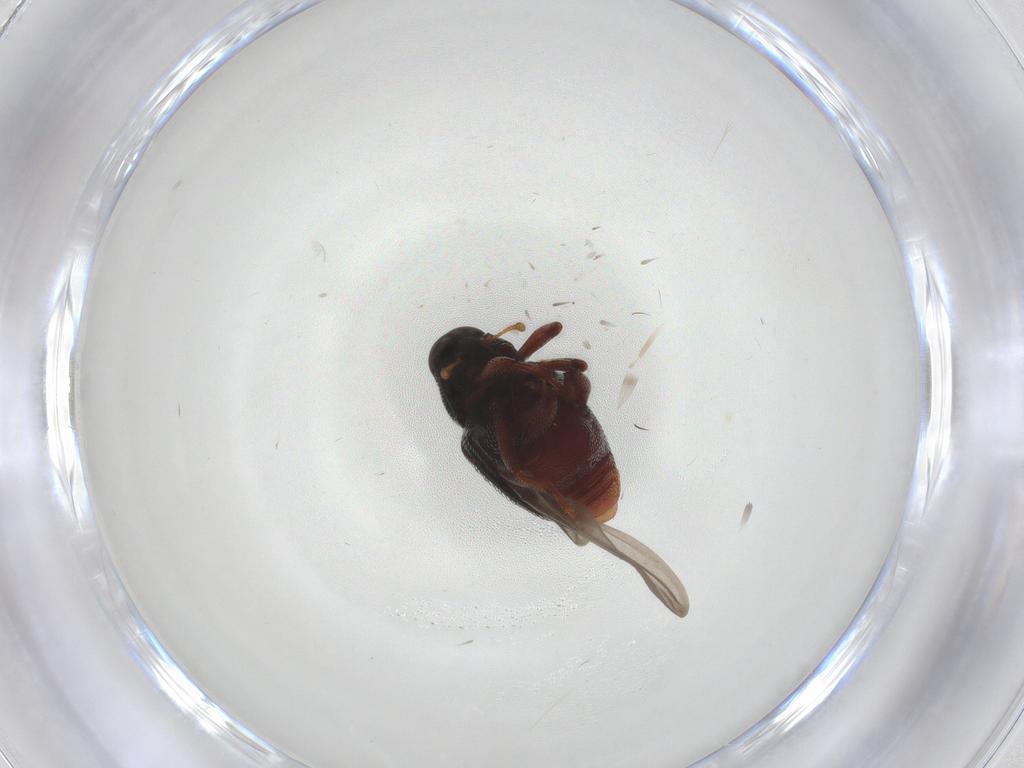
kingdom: Animalia
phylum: Arthropoda
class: Insecta
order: Coleoptera
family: Curculionidae
